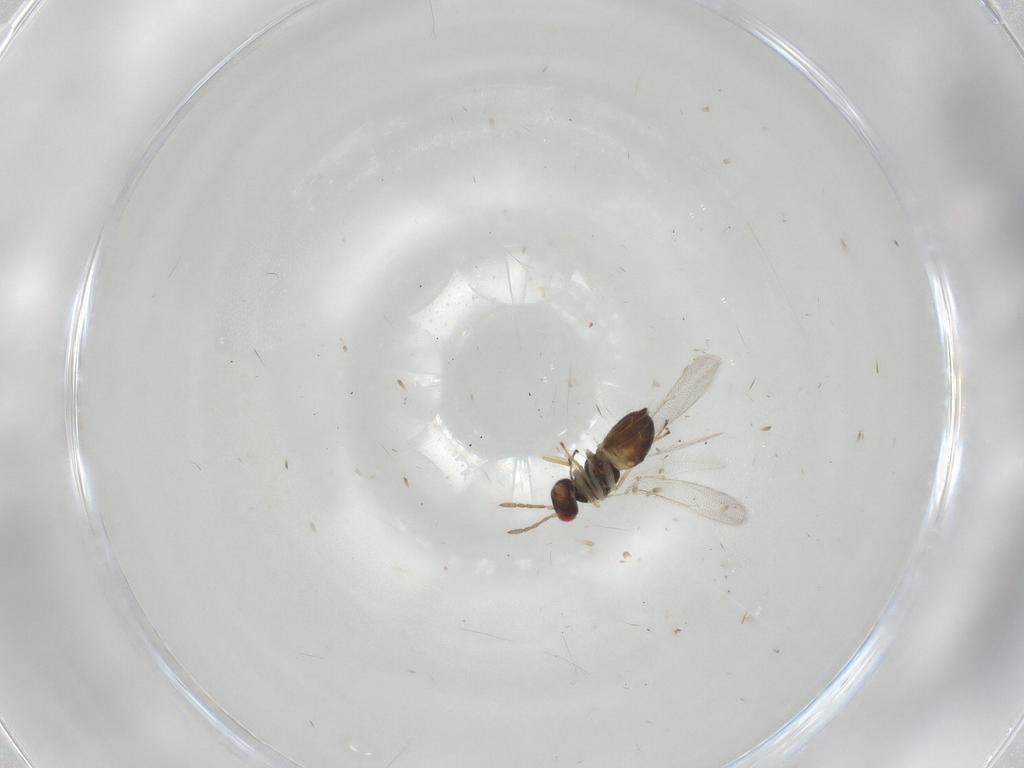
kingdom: Animalia
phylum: Arthropoda
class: Insecta
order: Hymenoptera
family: Eulophidae
